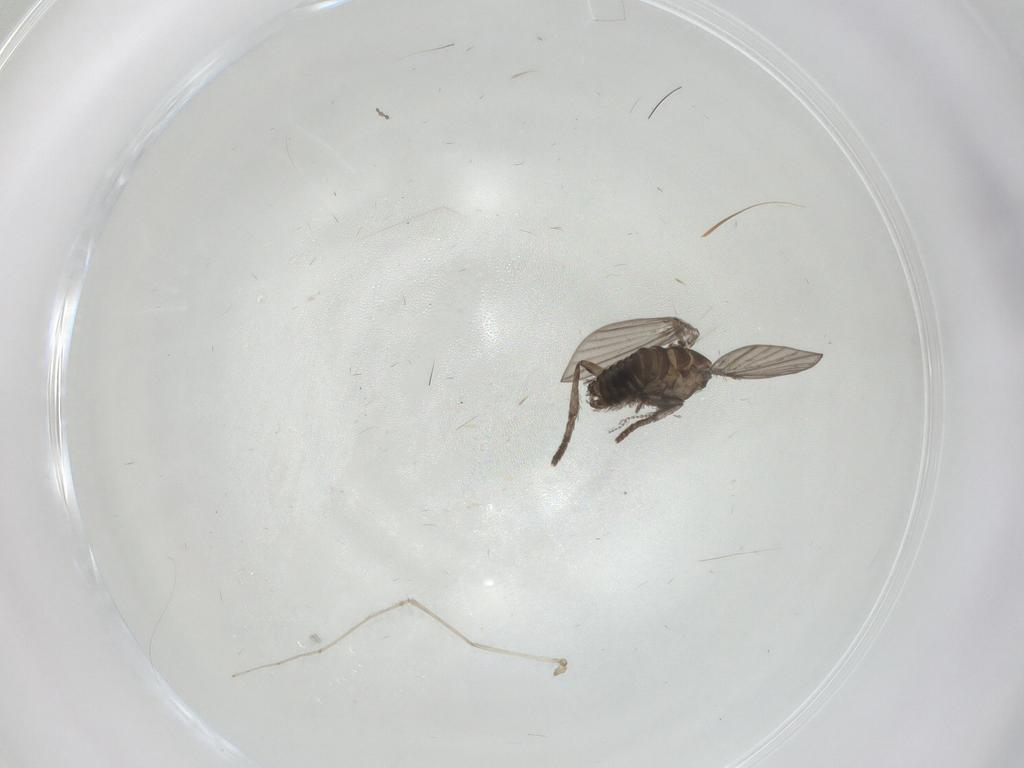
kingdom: Animalia
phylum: Arthropoda
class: Insecta
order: Diptera
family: Psychodidae
